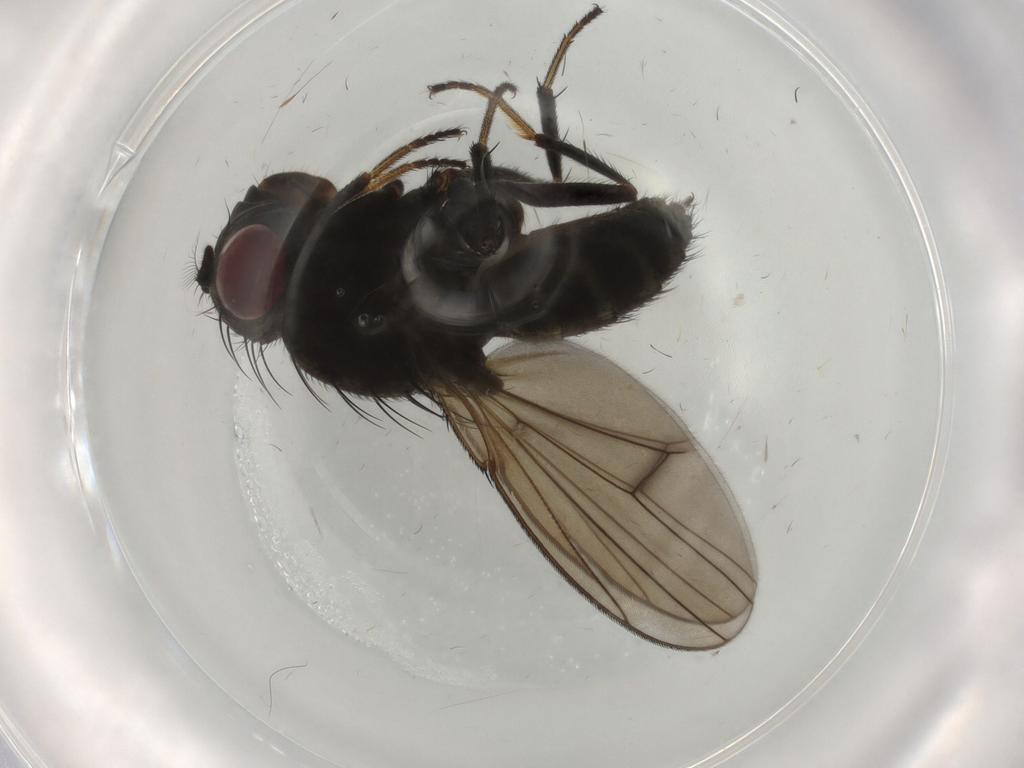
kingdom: Animalia
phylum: Arthropoda
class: Insecta
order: Diptera
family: Ephydridae
